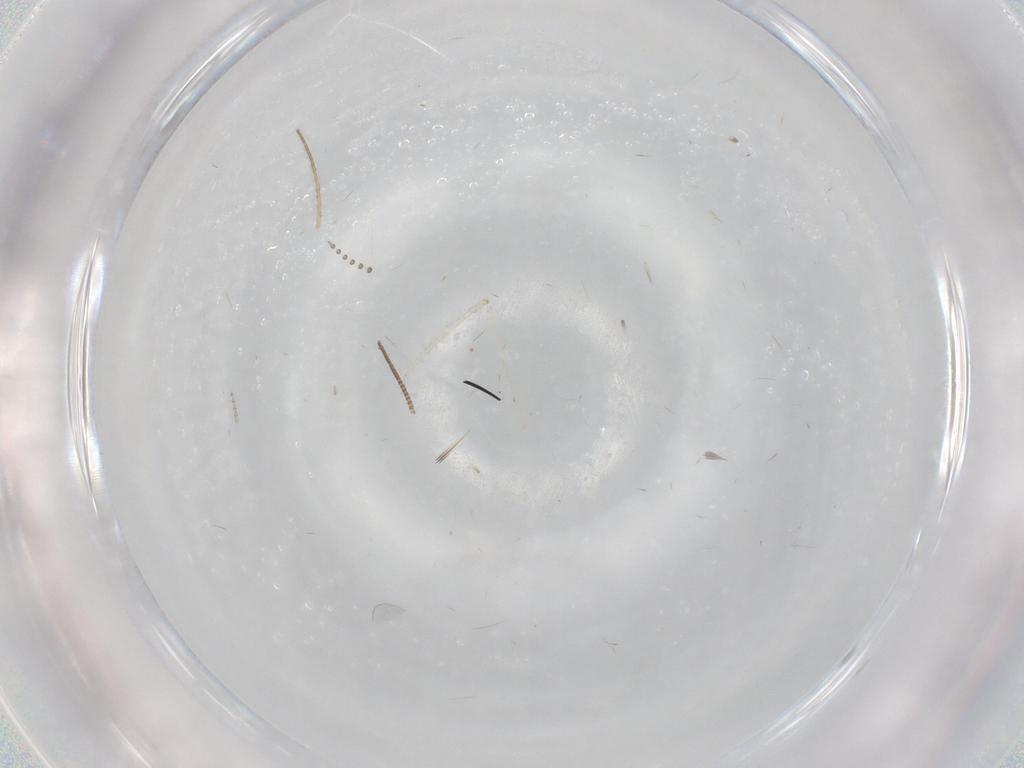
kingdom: Animalia
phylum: Arthropoda
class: Insecta
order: Diptera
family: Cecidomyiidae
